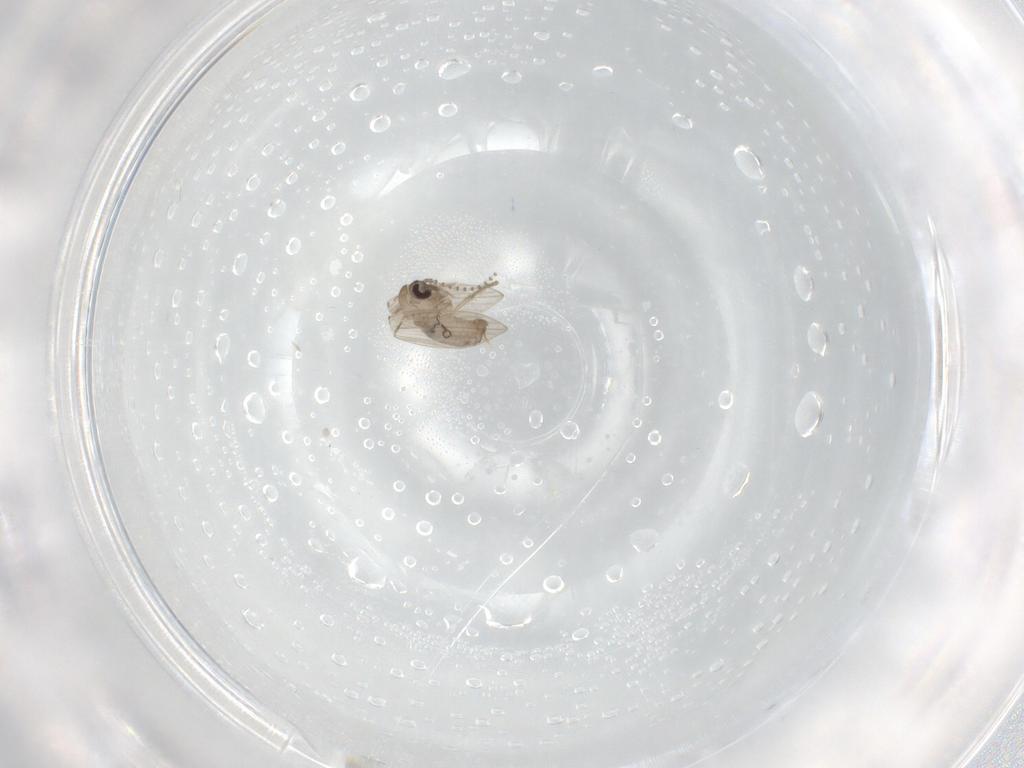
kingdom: Animalia
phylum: Arthropoda
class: Insecta
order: Diptera
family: Psychodidae
